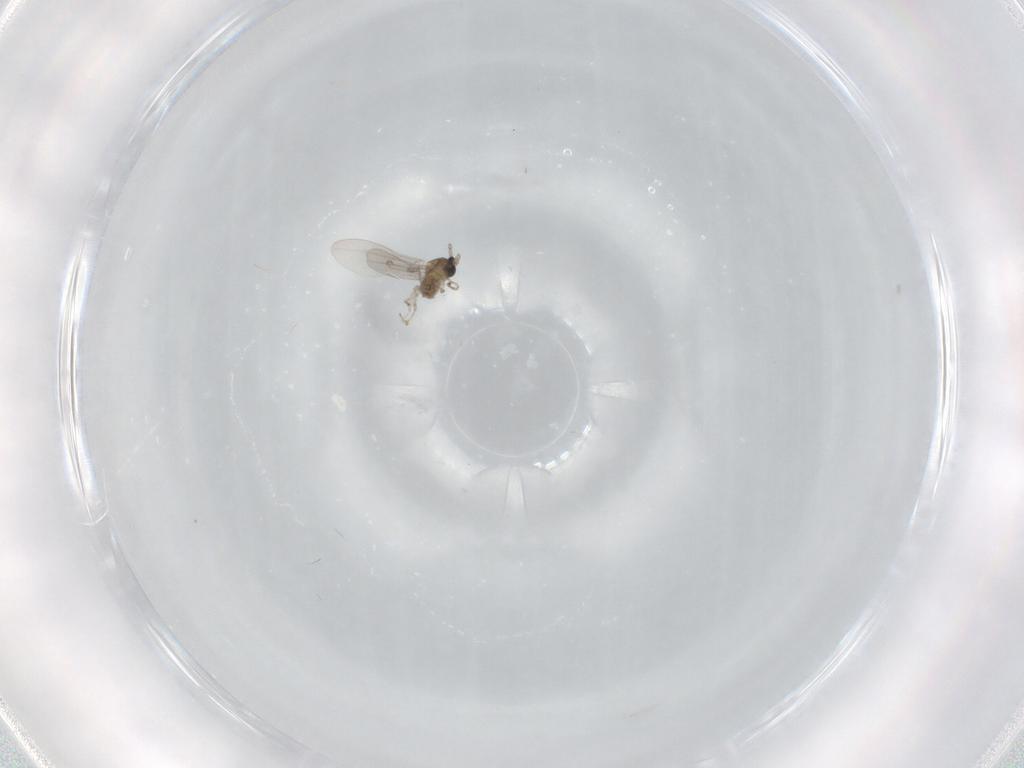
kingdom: Animalia
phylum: Arthropoda
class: Insecta
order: Diptera
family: Cecidomyiidae
